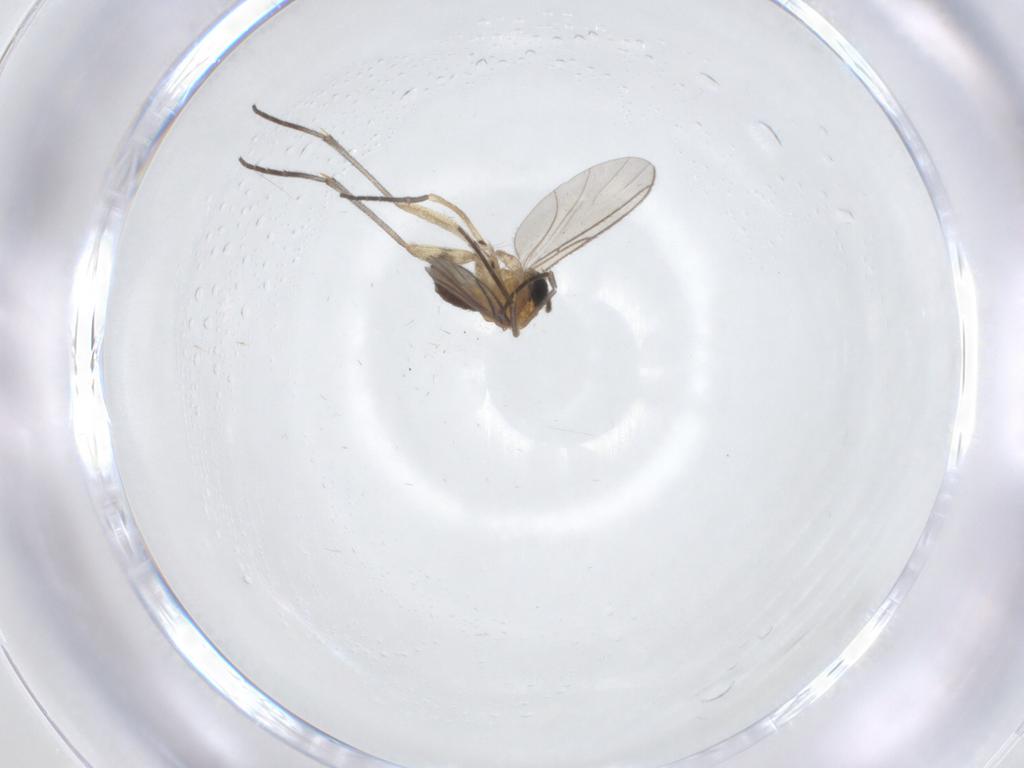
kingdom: Animalia
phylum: Arthropoda
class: Insecta
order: Diptera
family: Sciaridae
